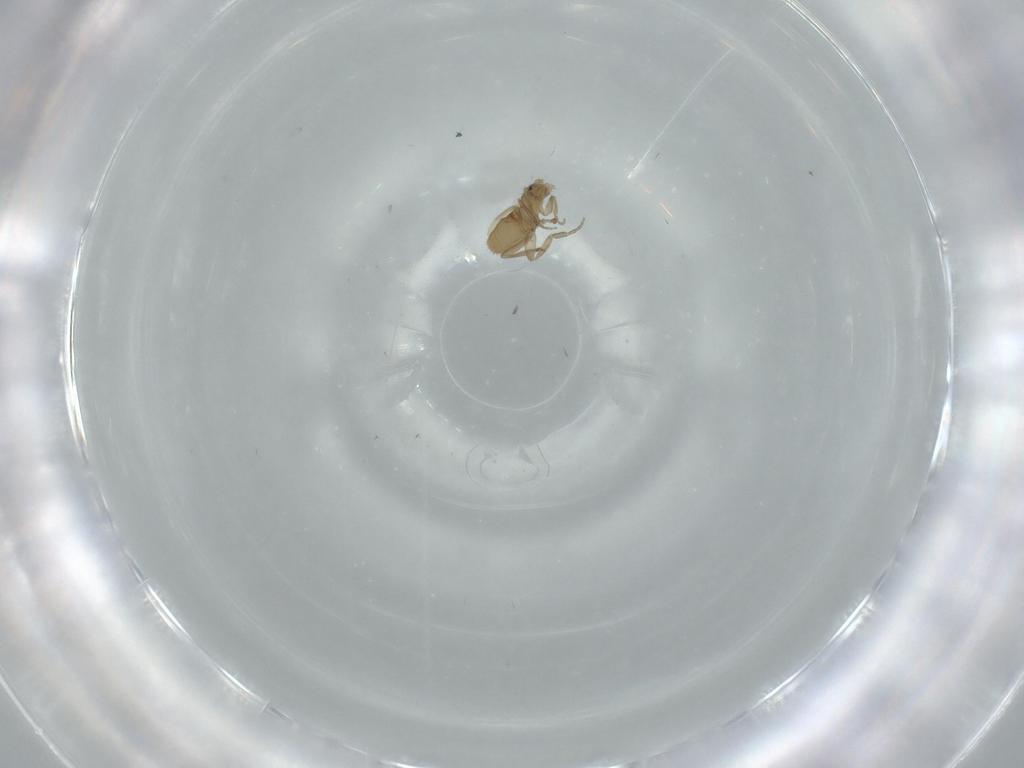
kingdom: Animalia
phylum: Arthropoda
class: Insecta
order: Diptera
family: Phoridae
